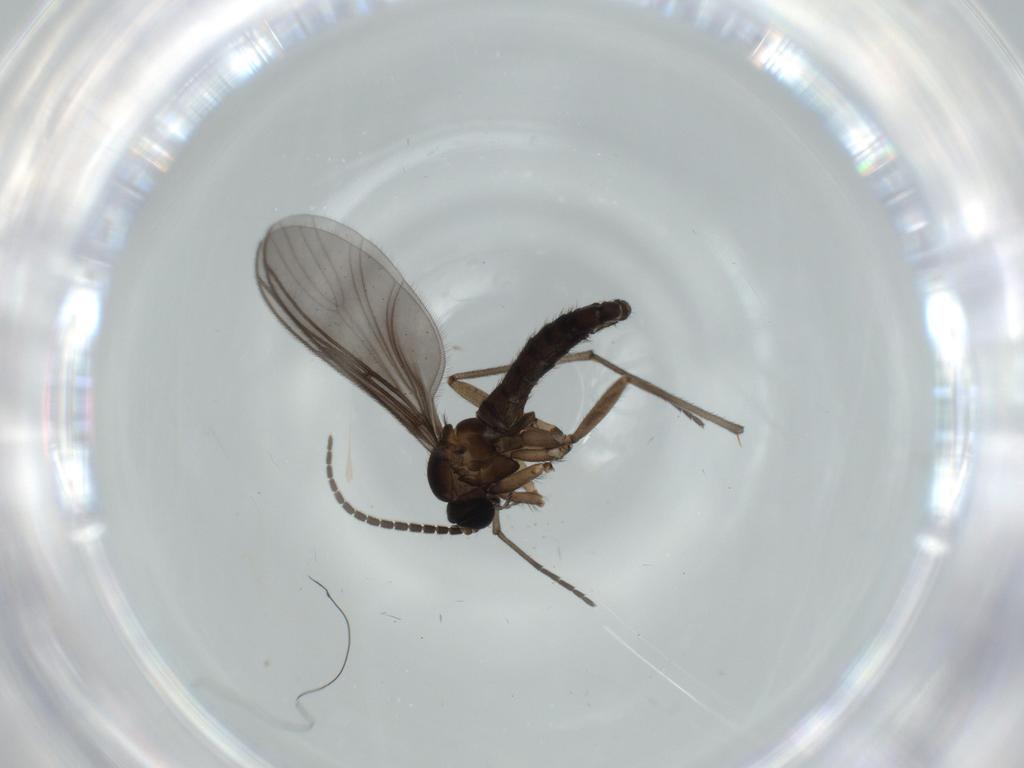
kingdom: Animalia
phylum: Arthropoda
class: Insecta
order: Diptera
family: Sciaridae
